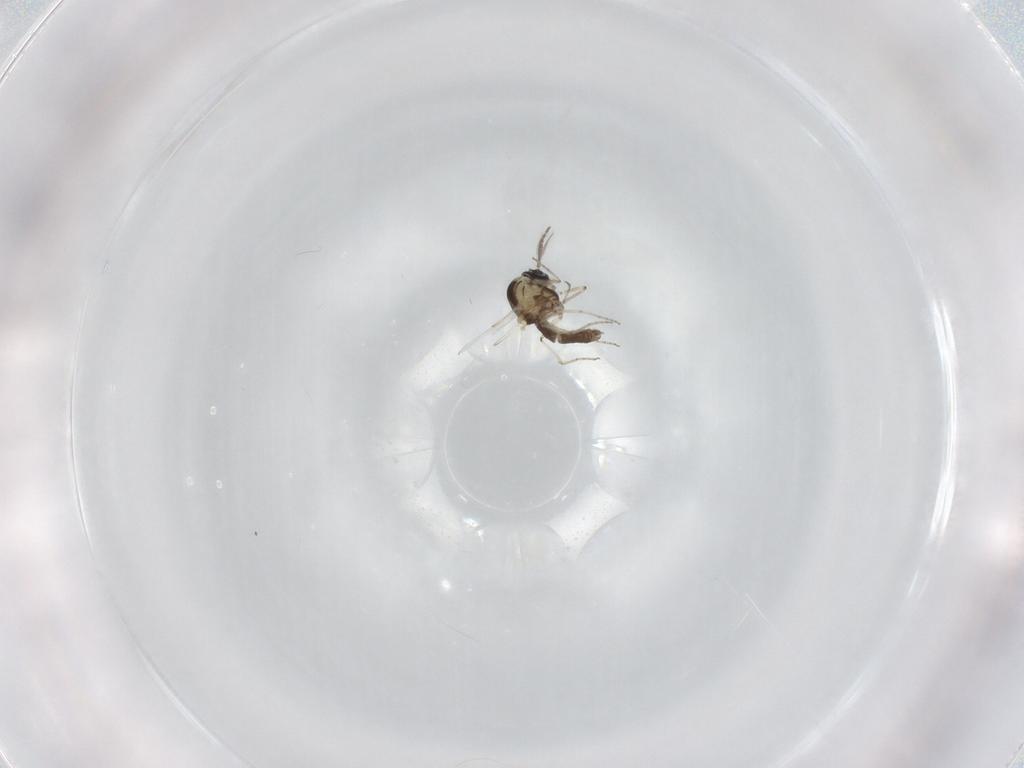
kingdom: Animalia
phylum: Arthropoda
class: Insecta
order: Diptera
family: Ceratopogonidae
